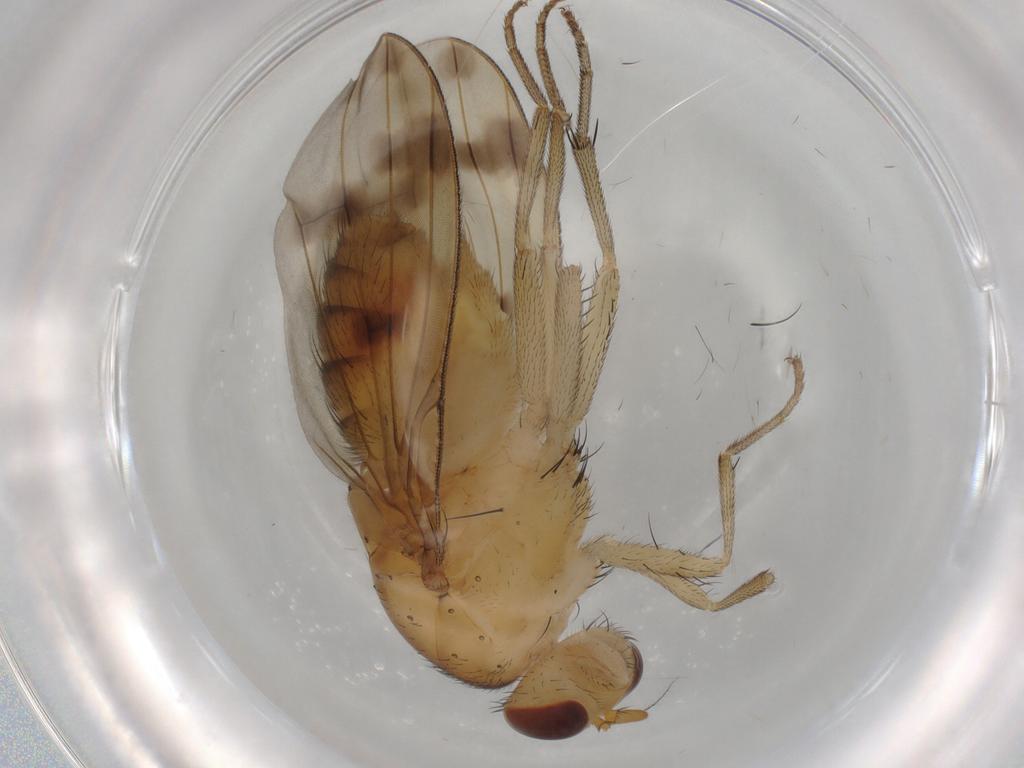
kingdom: Animalia
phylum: Arthropoda
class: Insecta
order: Diptera
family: Lauxaniidae
